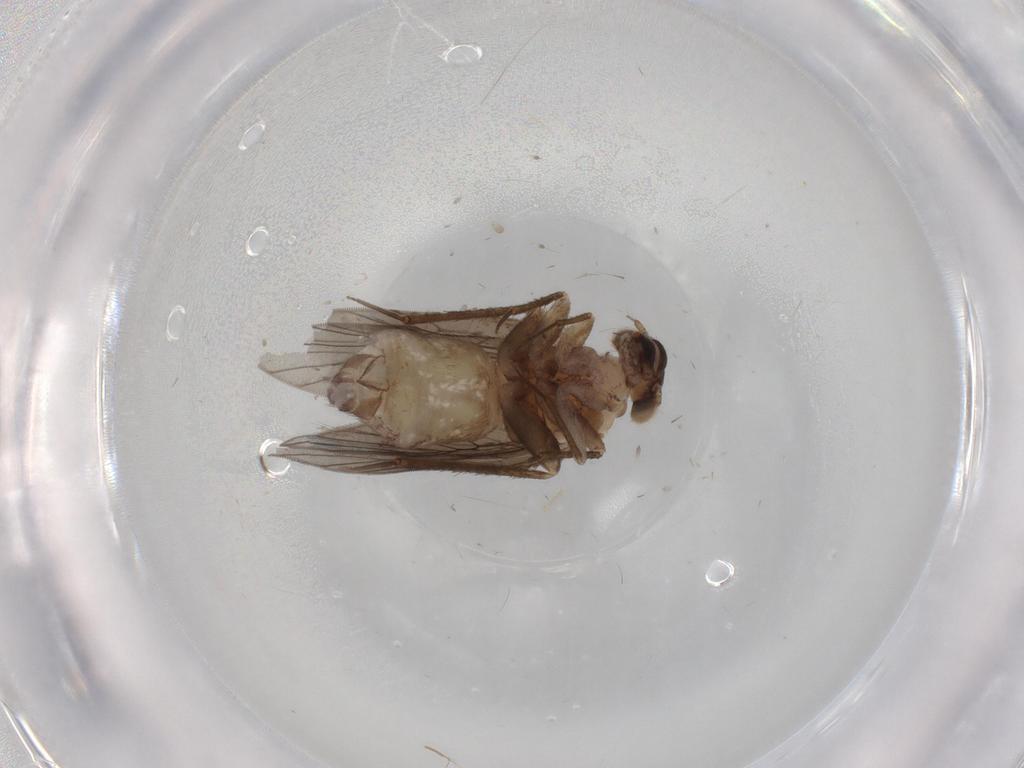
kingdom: Animalia
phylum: Arthropoda
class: Insecta
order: Psocodea
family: Lepidopsocidae
